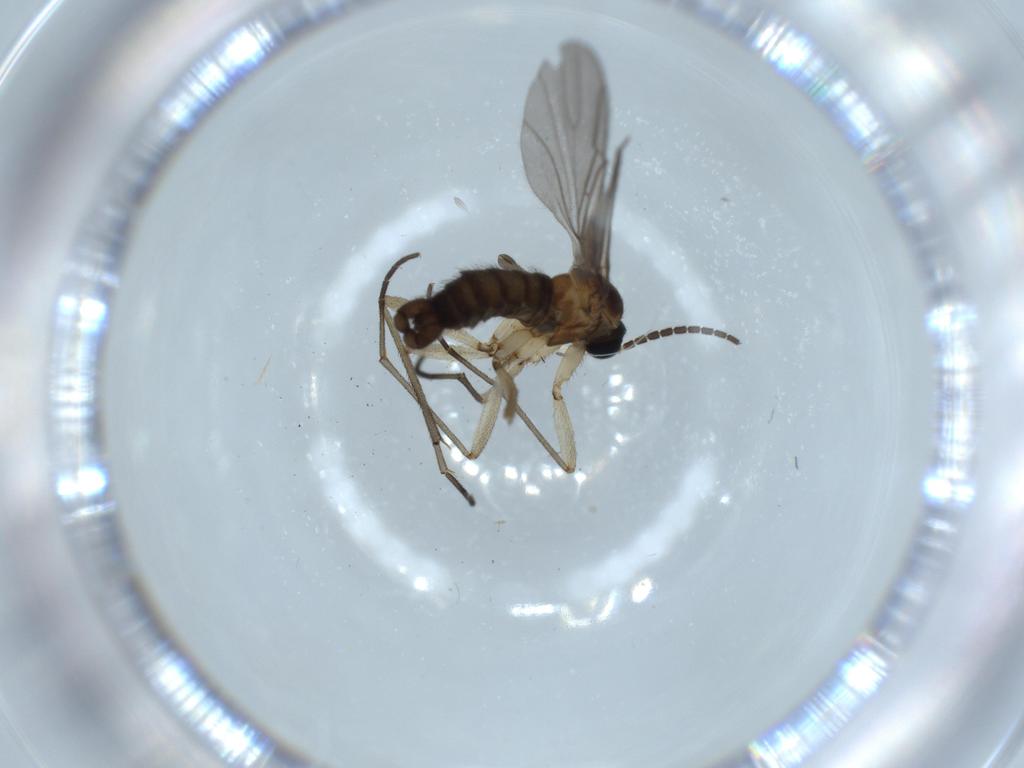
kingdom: Animalia
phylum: Arthropoda
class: Insecta
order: Diptera
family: Sciaridae
